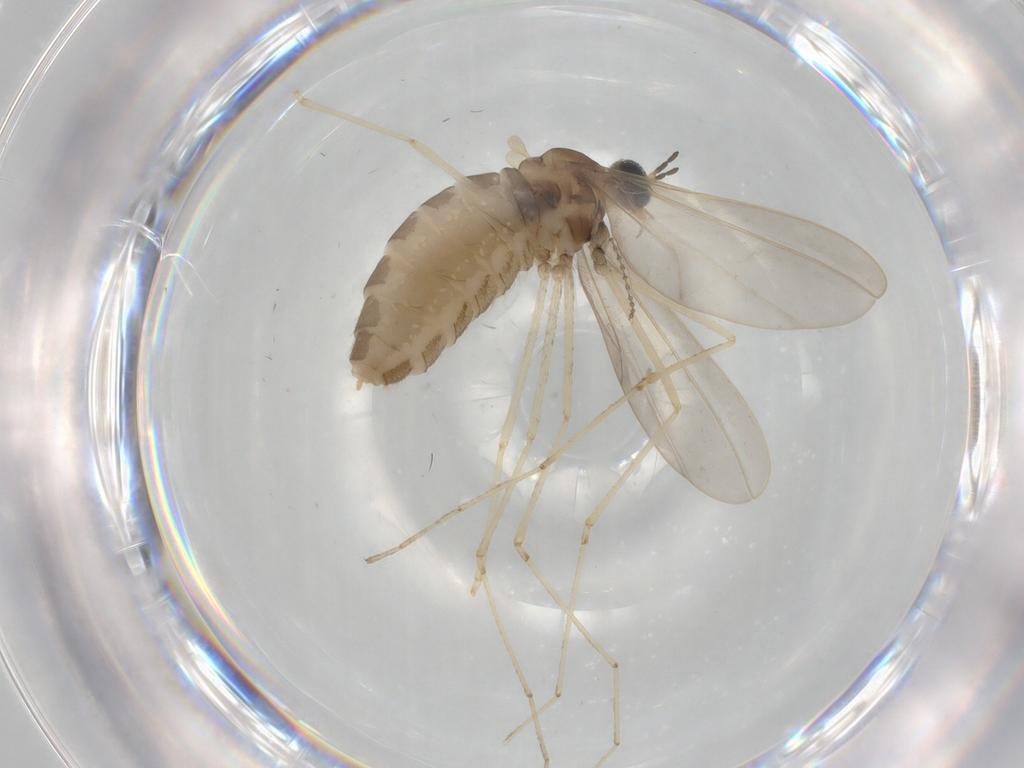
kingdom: Animalia
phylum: Arthropoda
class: Insecta
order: Diptera
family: Cecidomyiidae
